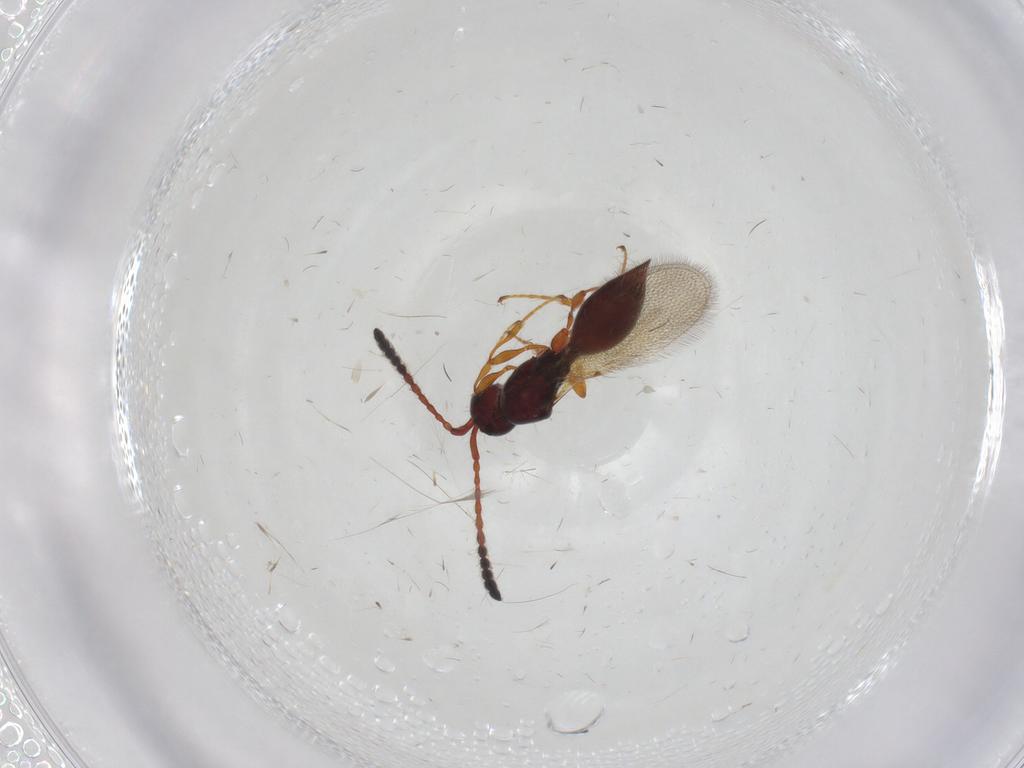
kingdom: Animalia
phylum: Arthropoda
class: Insecta
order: Hymenoptera
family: Diapriidae
